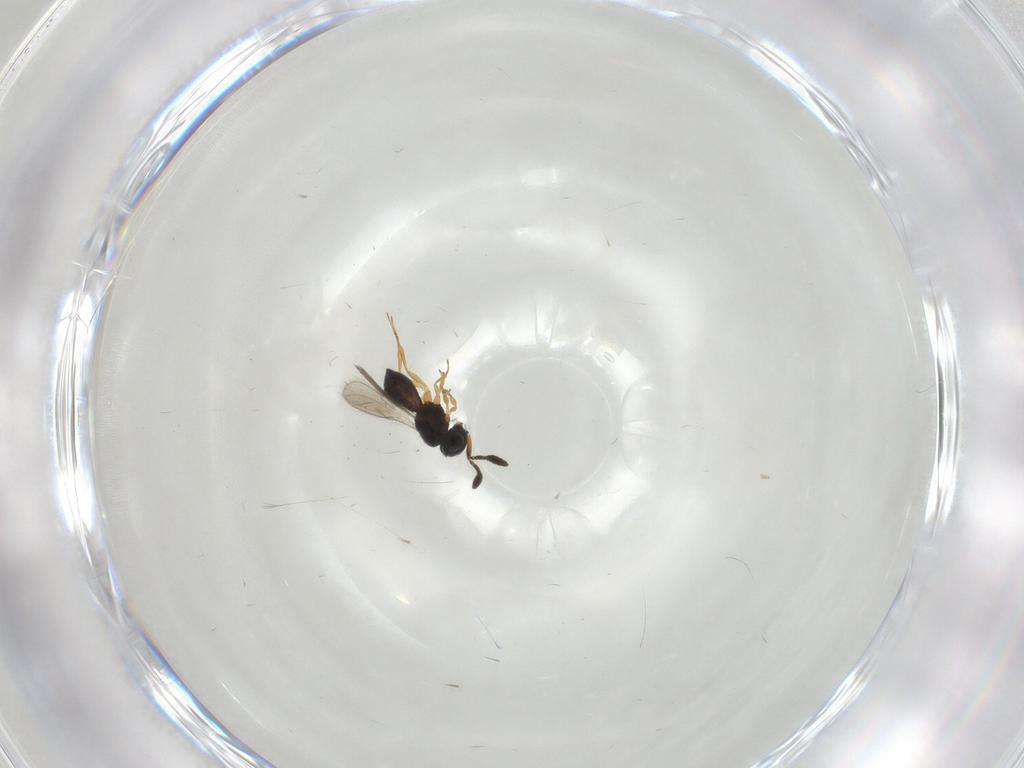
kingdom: Animalia
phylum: Arthropoda
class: Insecta
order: Hymenoptera
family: Scelionidae
